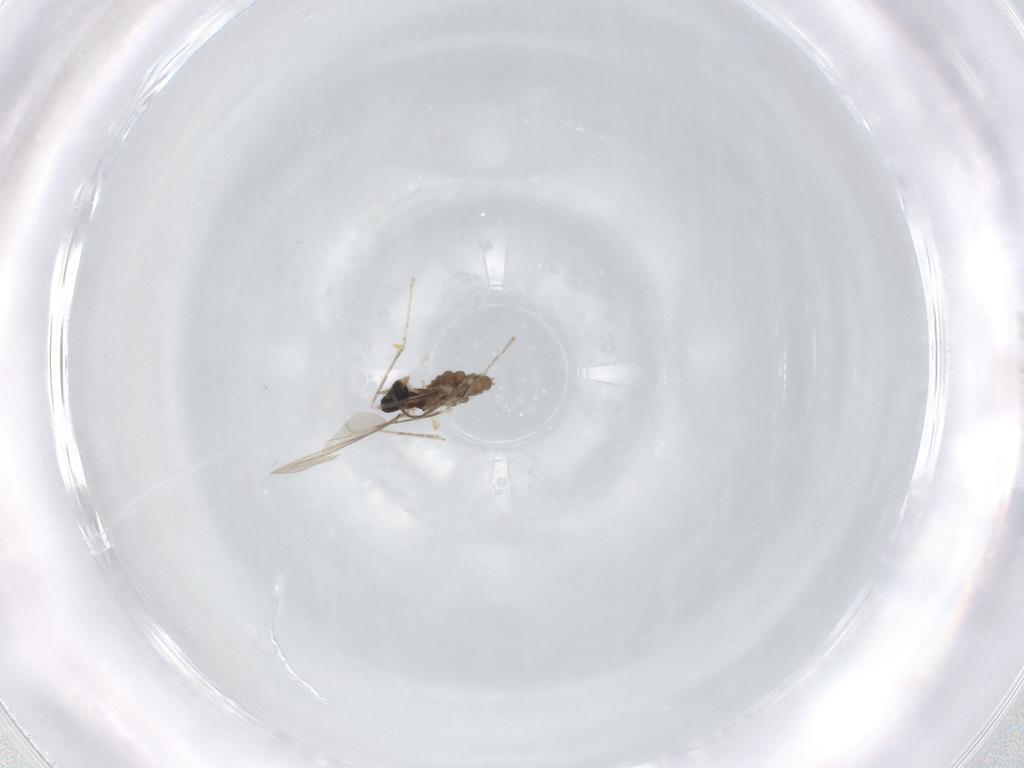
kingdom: Animalia
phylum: Arthropoda
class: Insecta
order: Diptera
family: Cecidomyiidae
